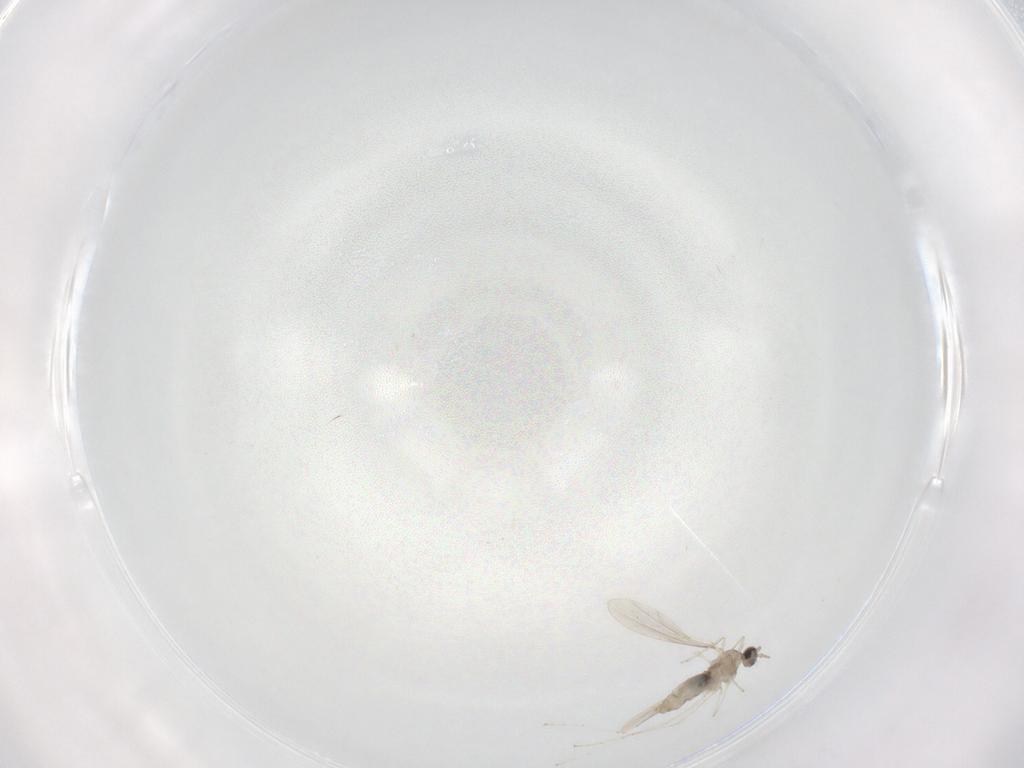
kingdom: Animalia
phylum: Arthropoda
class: Insecta
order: Diptera
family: Cecidomyiidae
